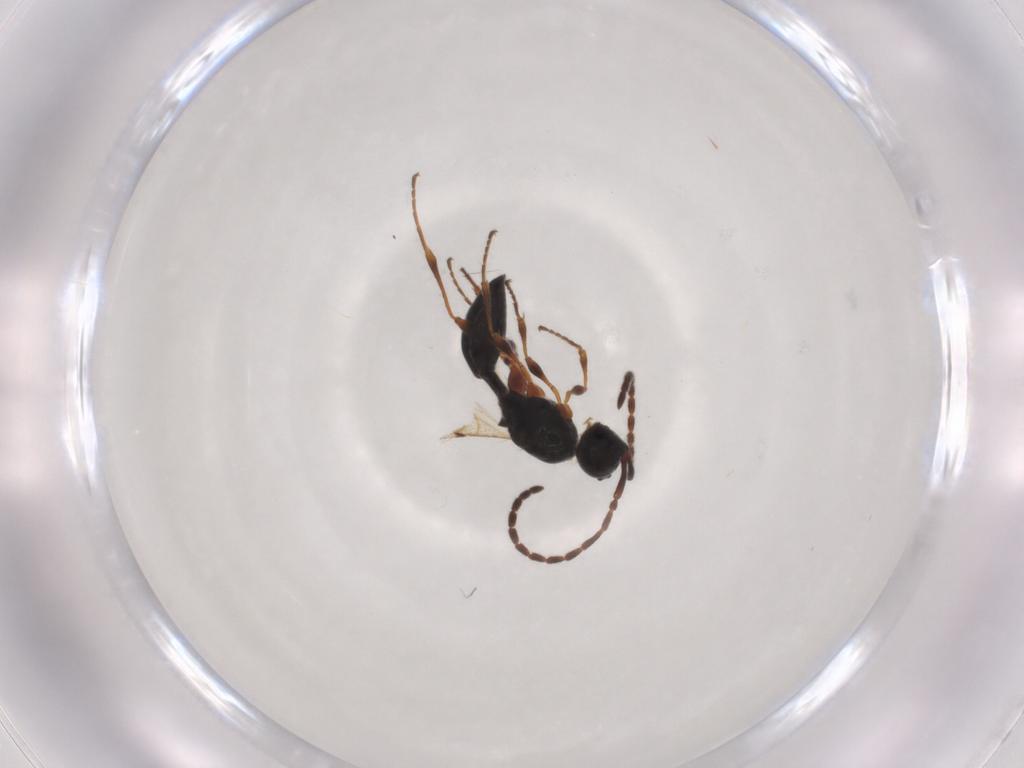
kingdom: Animalia
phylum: Arthropoda
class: Insecta
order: Hymenoptera
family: Diapriidae
